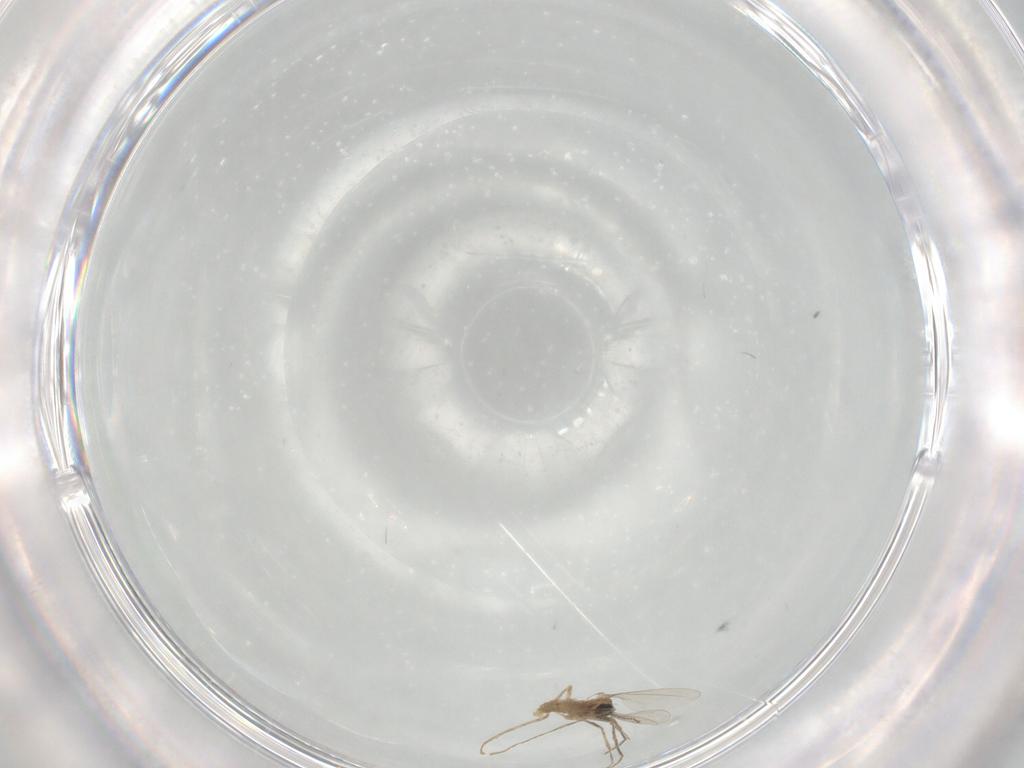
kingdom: Animalia
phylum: Arthropoda
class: Insecta
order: Diptera
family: Cecidomyiidae
